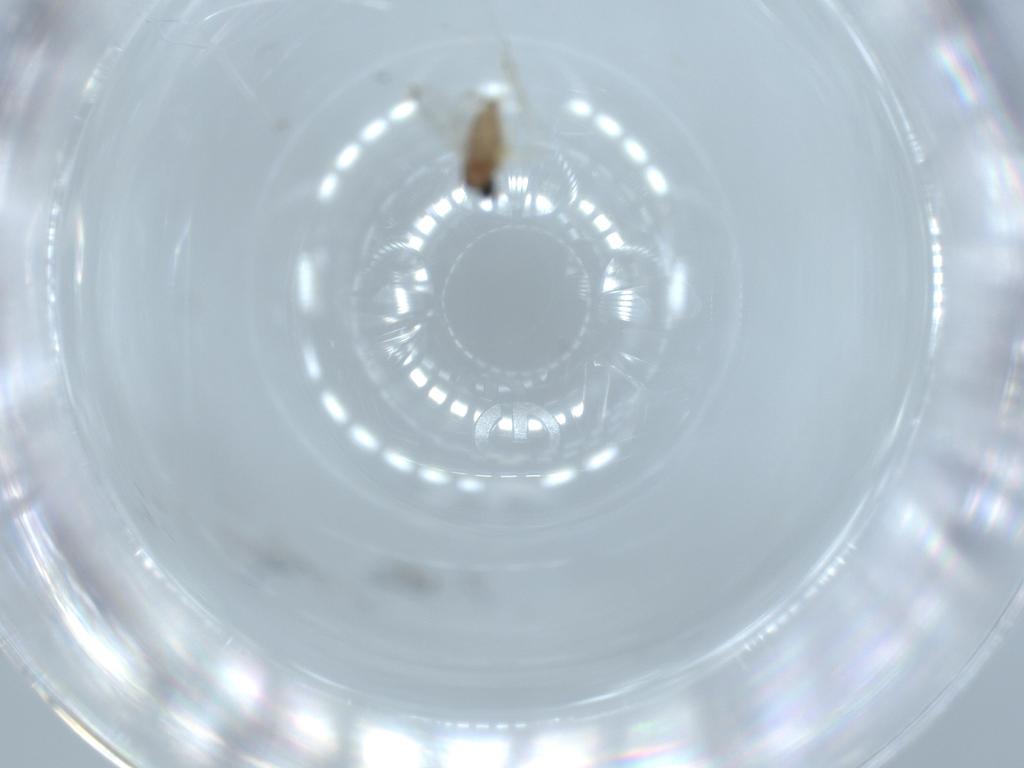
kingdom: Animalia
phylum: Arthropoda
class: Insecta
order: Diptera
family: Cecidomyiidae
